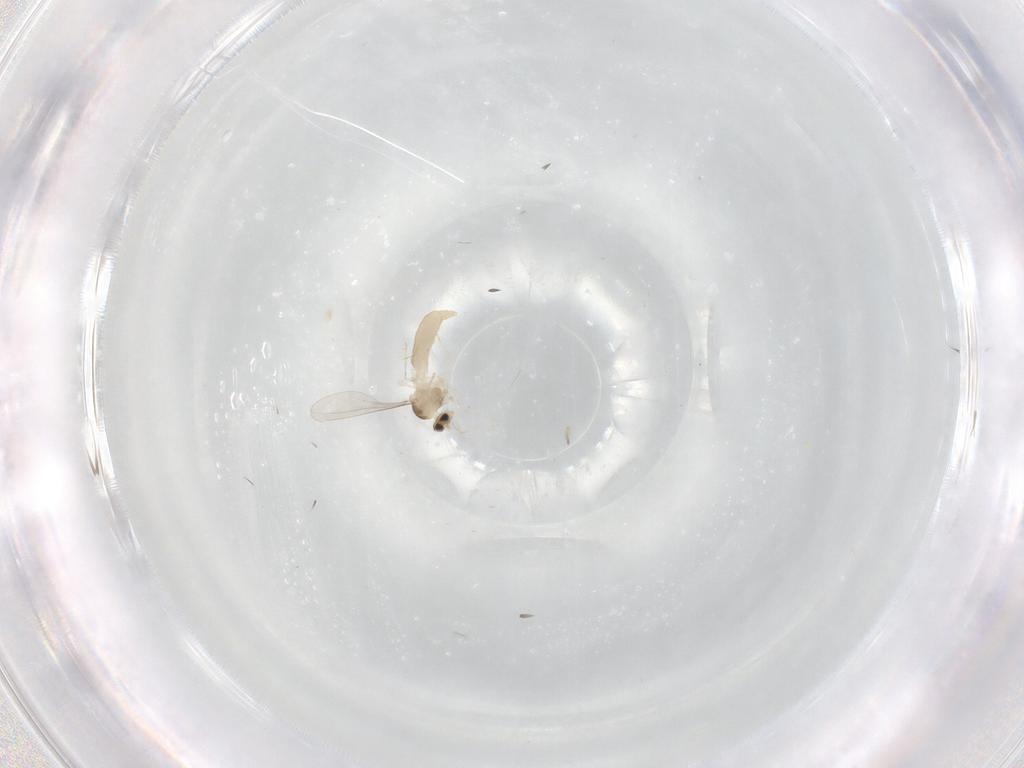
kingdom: Animalia
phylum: Arthropoda
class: Insecta
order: Diptera
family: Cecidomyiidae
